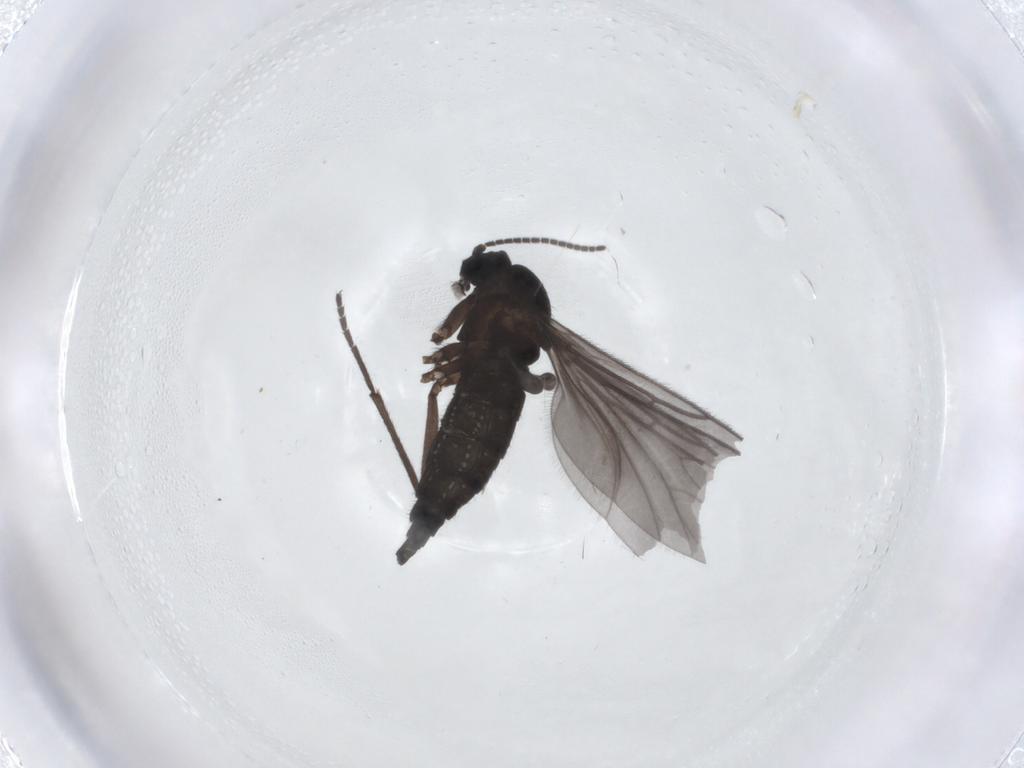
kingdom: Animalia
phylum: Arthropoda
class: Insecta
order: Diptera
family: Sciaridae
